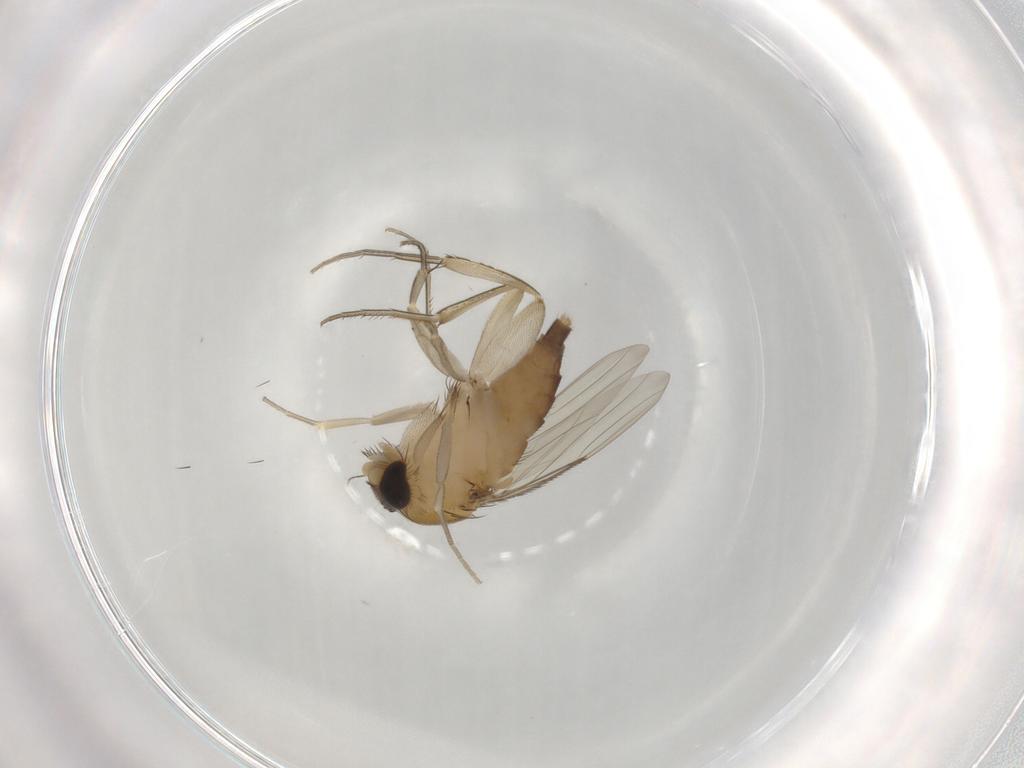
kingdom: Animalia
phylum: Arthropoda
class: Insecta
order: Diptera
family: Phoridae
